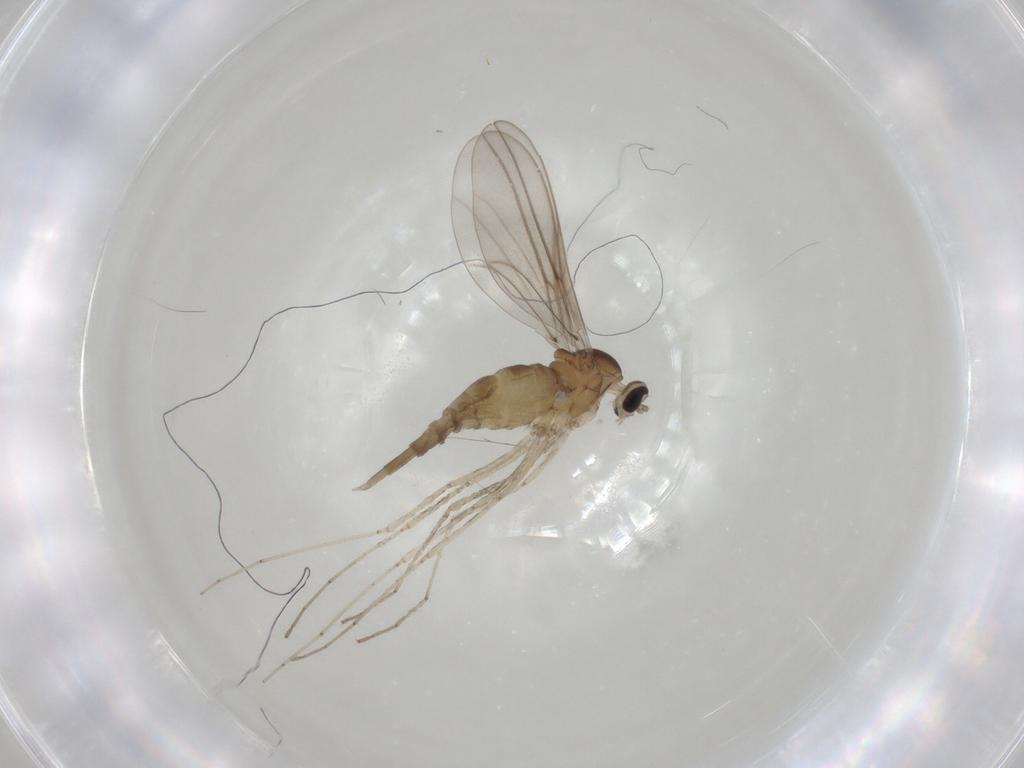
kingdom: Animalia
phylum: Arthropoda
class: Insecta
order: Diptera
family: Cecidomyiidae
